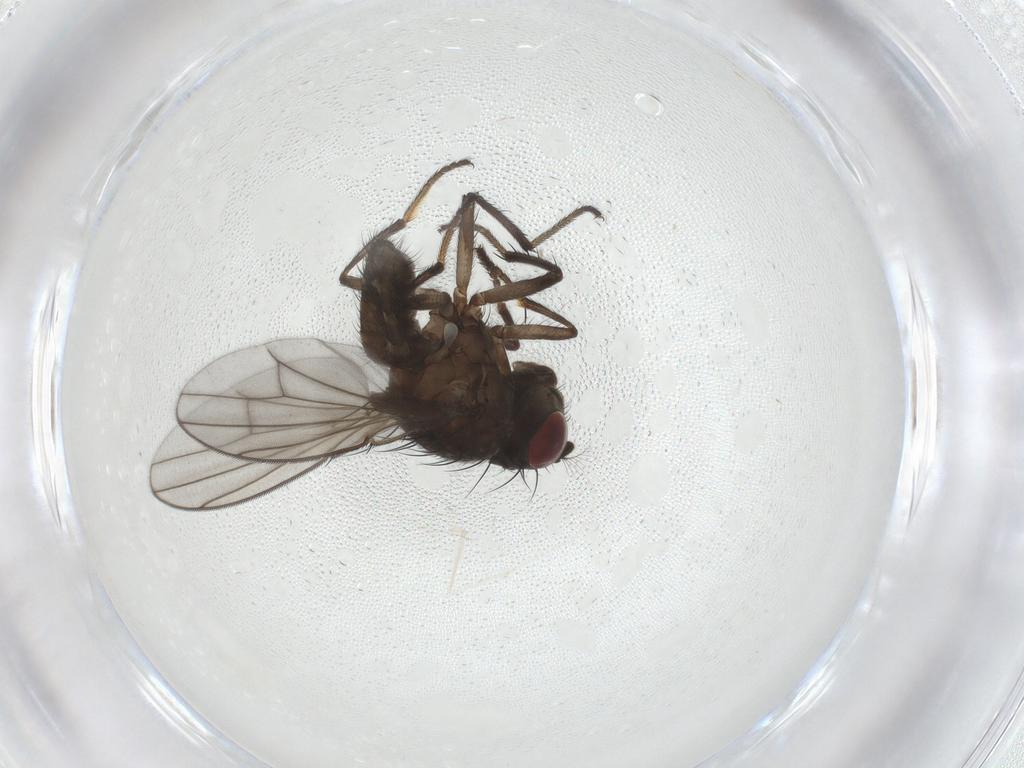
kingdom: Animalia
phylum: Arthropoda
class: Insecta
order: Diptera
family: Ephydridae
